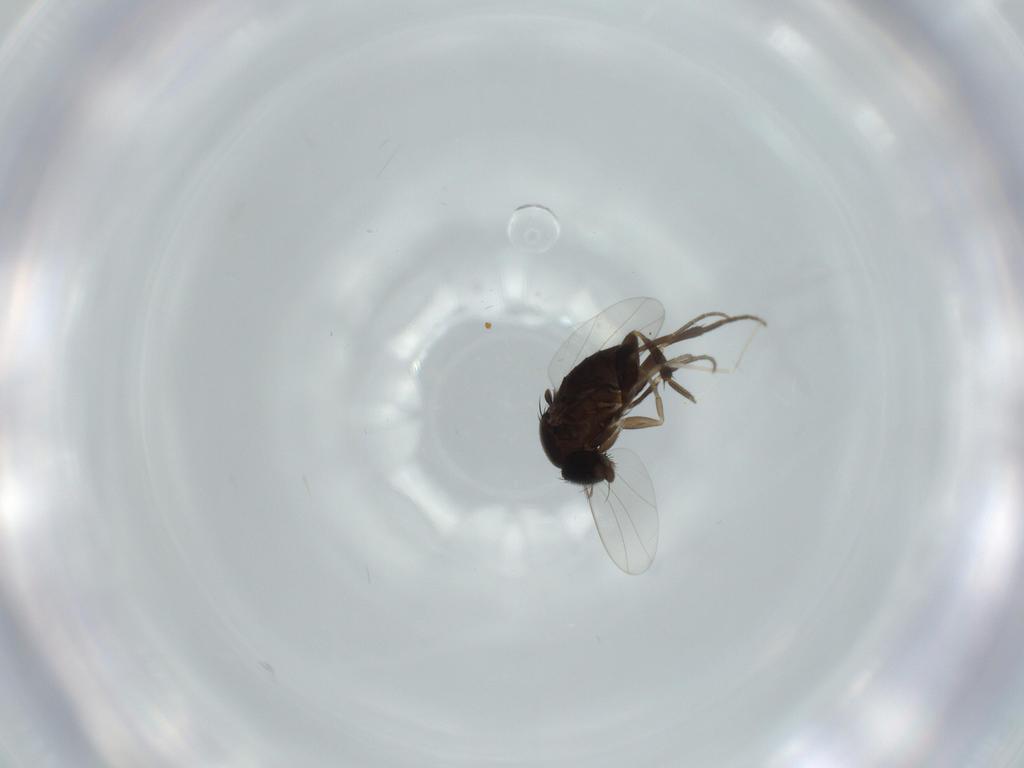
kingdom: Animalia
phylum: Arthropoda
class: Insecta
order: Diptera
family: Phoridae
